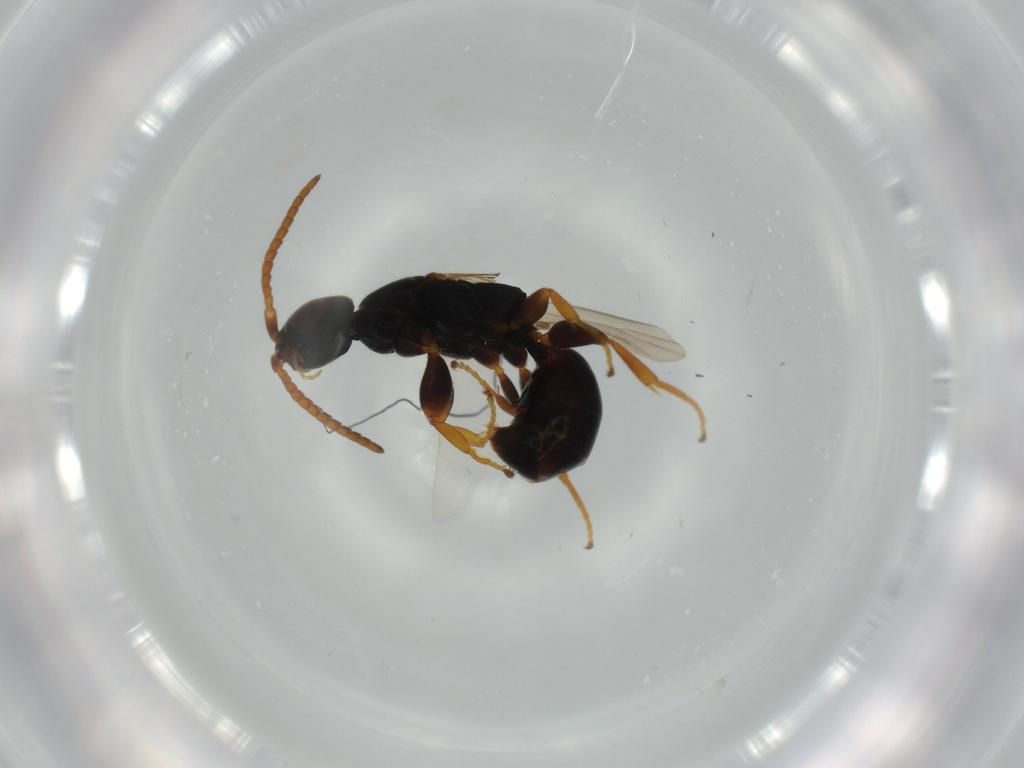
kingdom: Animalia
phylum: Arthropoda
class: Insecta
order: Hymenoptera
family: Bethylidae
